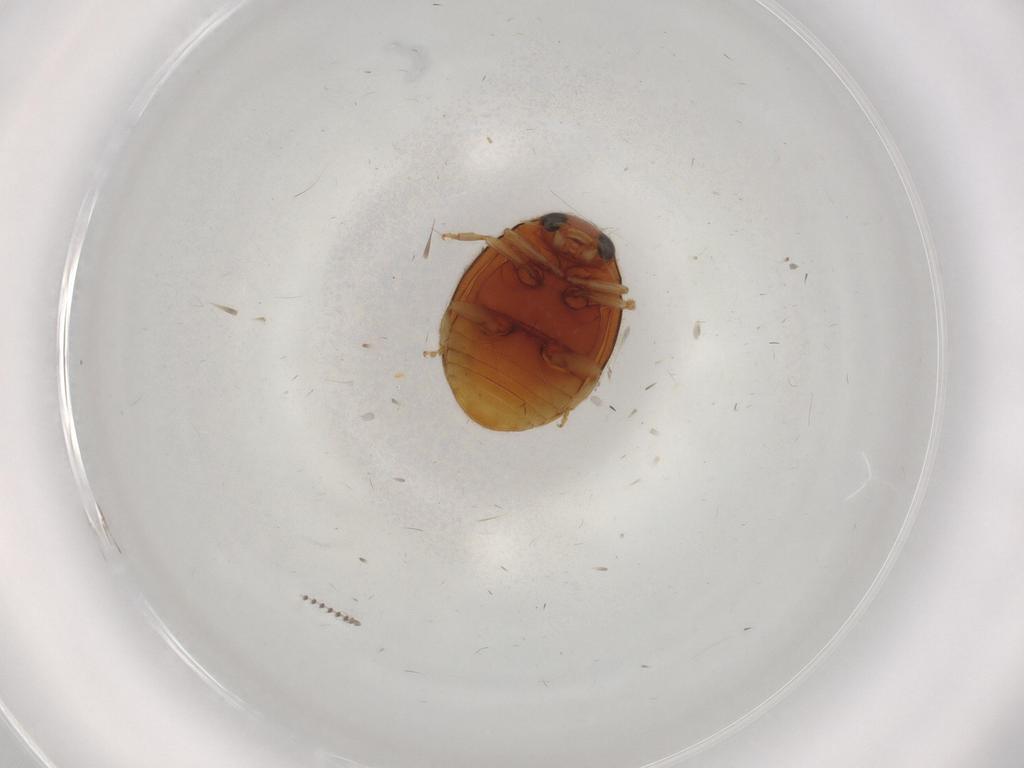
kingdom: Animalia
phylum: Arthropoda
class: Insecta
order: Coleoptera
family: Coccinellidae
